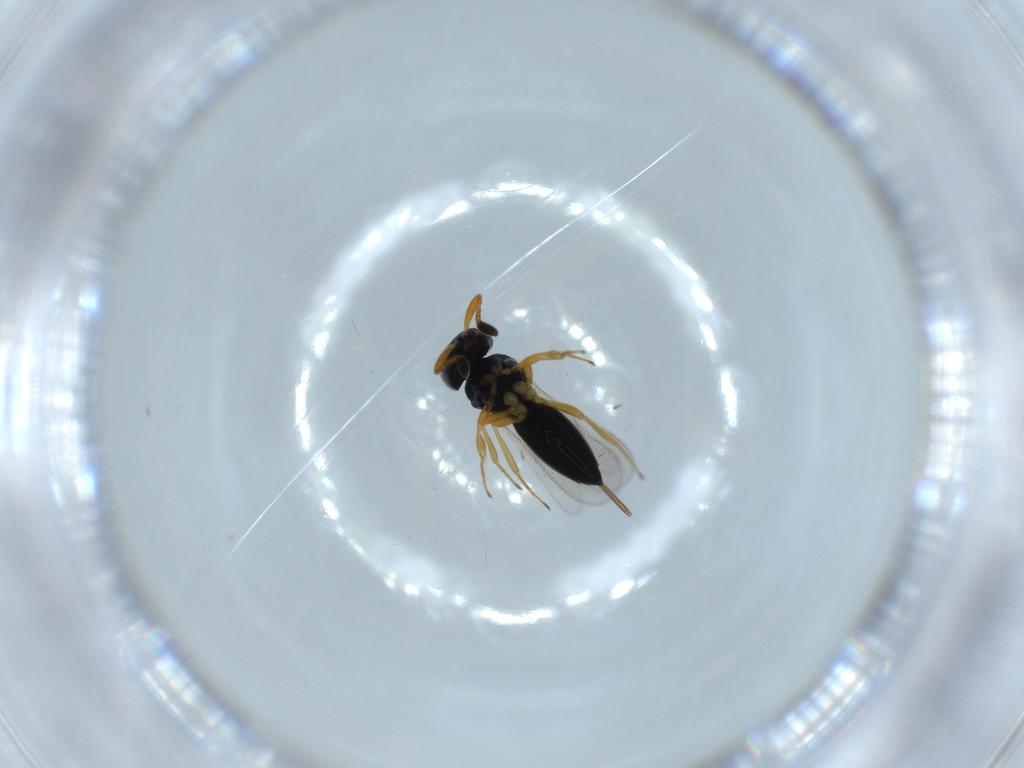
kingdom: Animalia
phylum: Arthropoda
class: Insecta
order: Hymenoptera
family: Scelionidae
